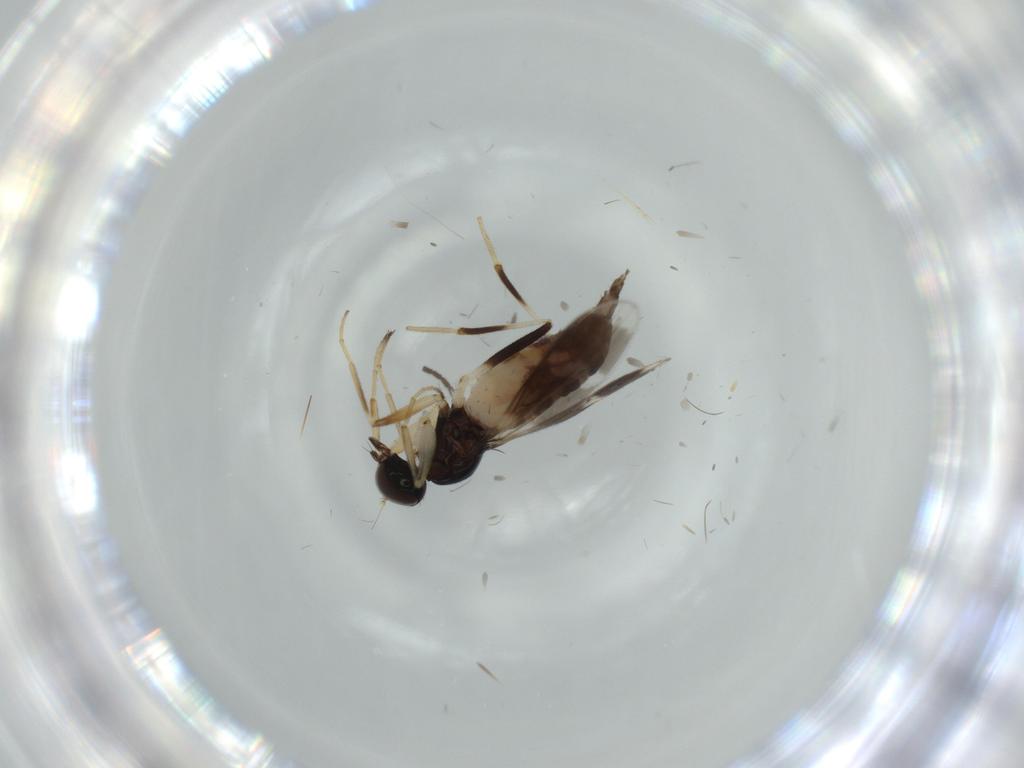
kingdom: Animalia
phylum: Arthropoda
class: Insecta
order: Diptera
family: Hybotidae
